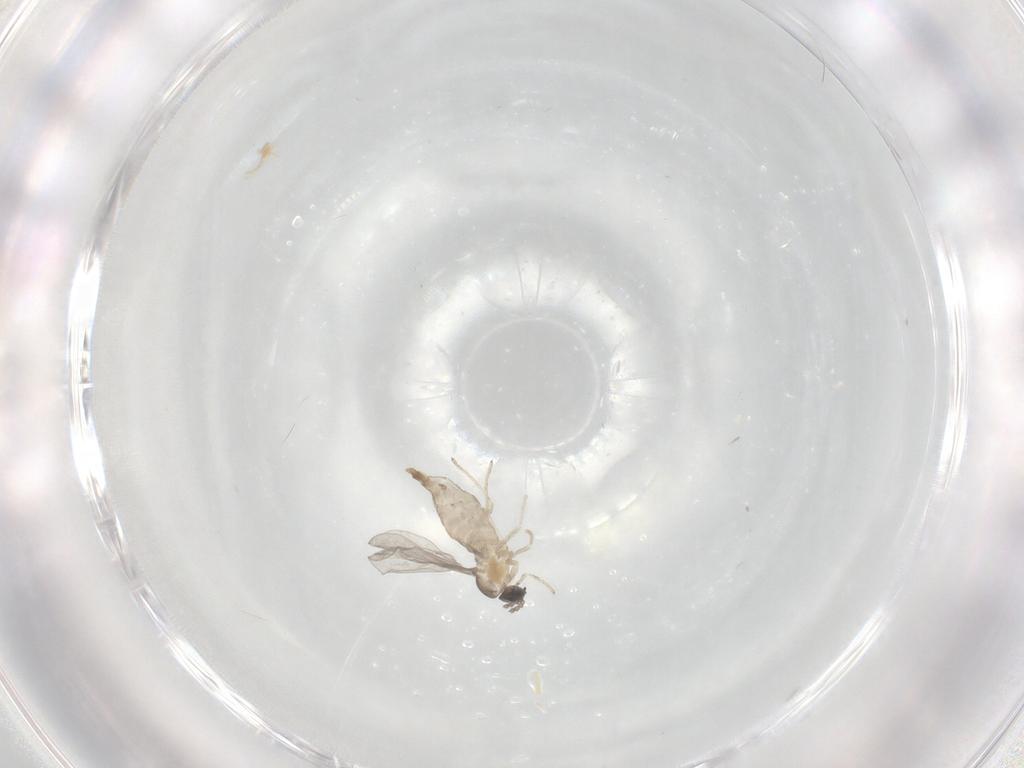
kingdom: Animalia
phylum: Arthropoda
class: Insecta
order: Diptera
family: Cecidomyiidae
